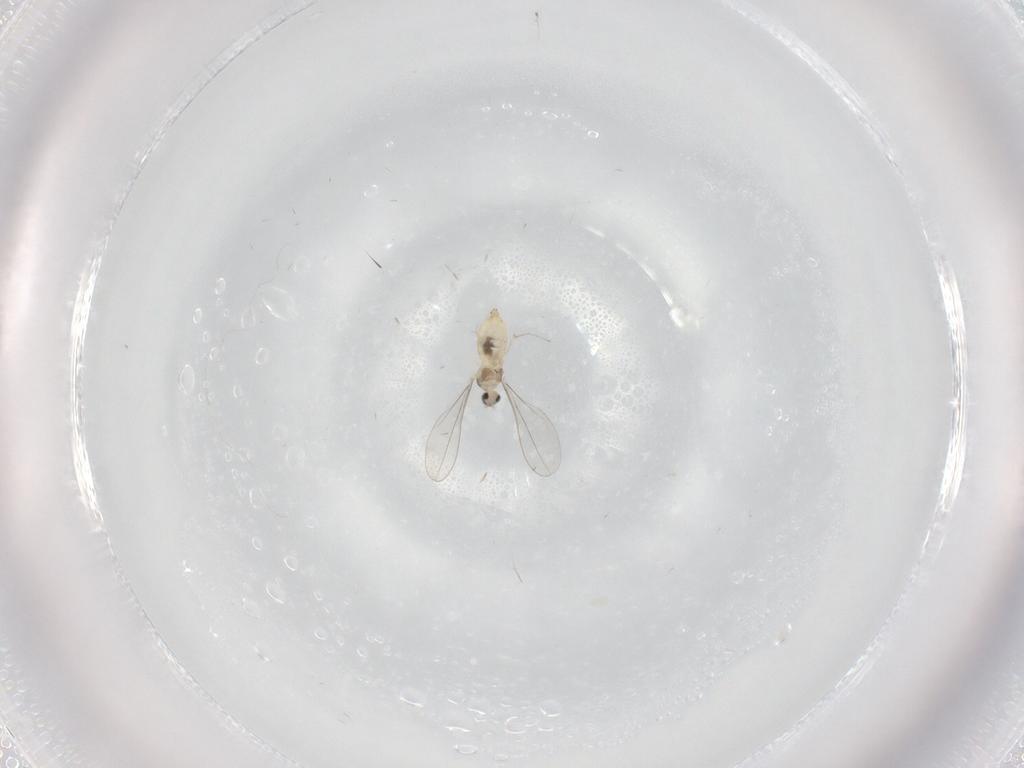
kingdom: Animalia
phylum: Arthropoda
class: Insecta
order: Diptera
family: Cecidomyiidae
